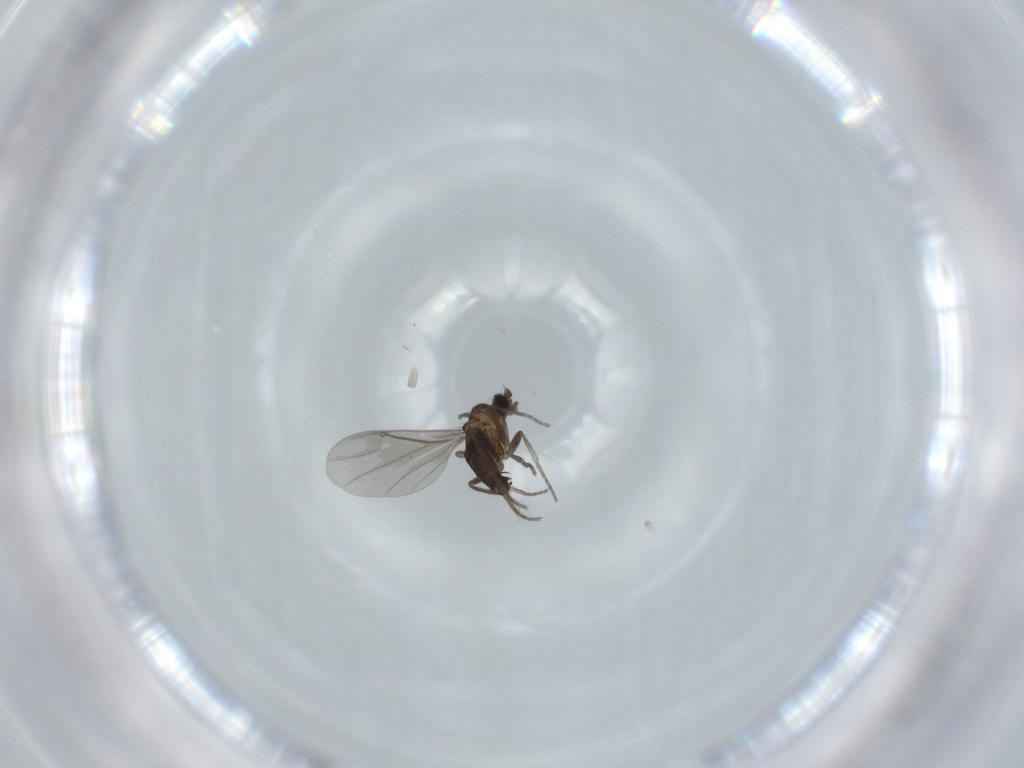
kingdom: Animalia
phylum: Arthropoda
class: Insecta
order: Diptera
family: Phoridae
